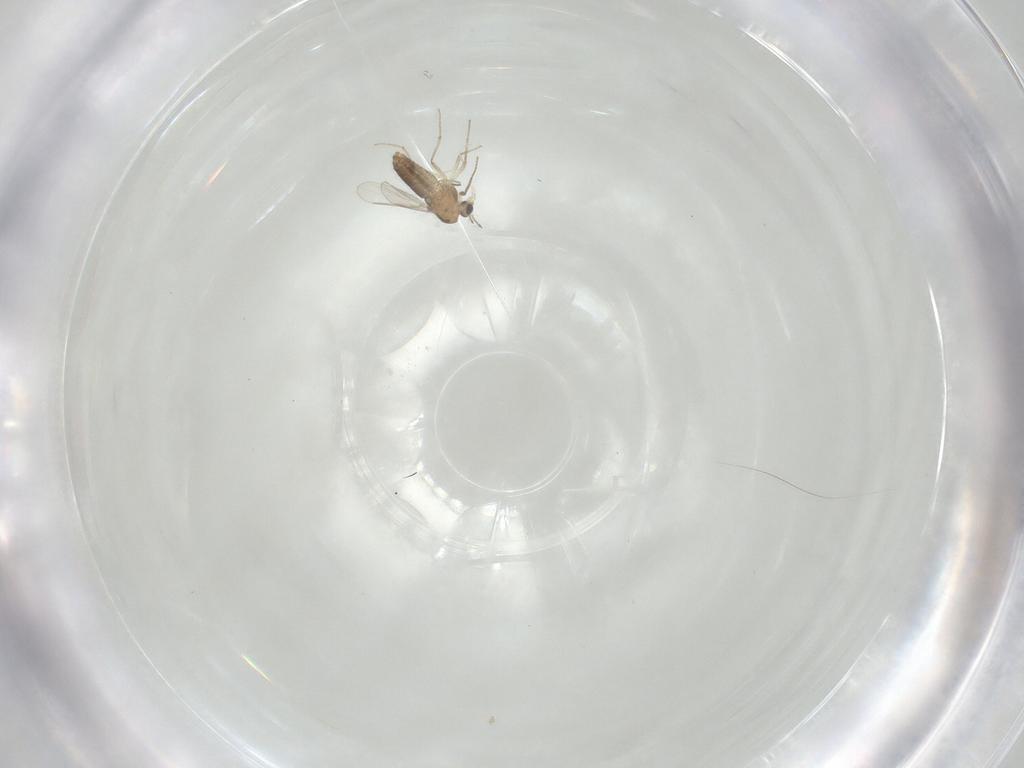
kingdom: Animalia
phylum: Arthropoda
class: Insecta
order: Diptera
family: Chironomidae
